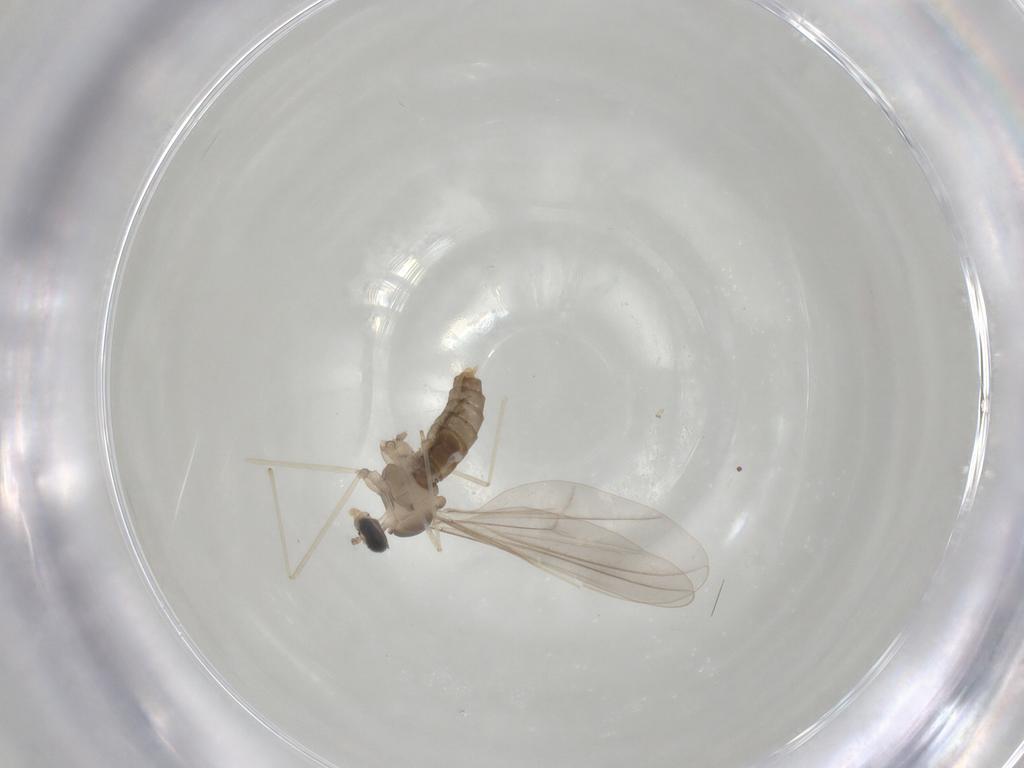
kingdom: Animalia
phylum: Arthropoda
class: Insecta
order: Diptera
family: Cecidomyiidae
